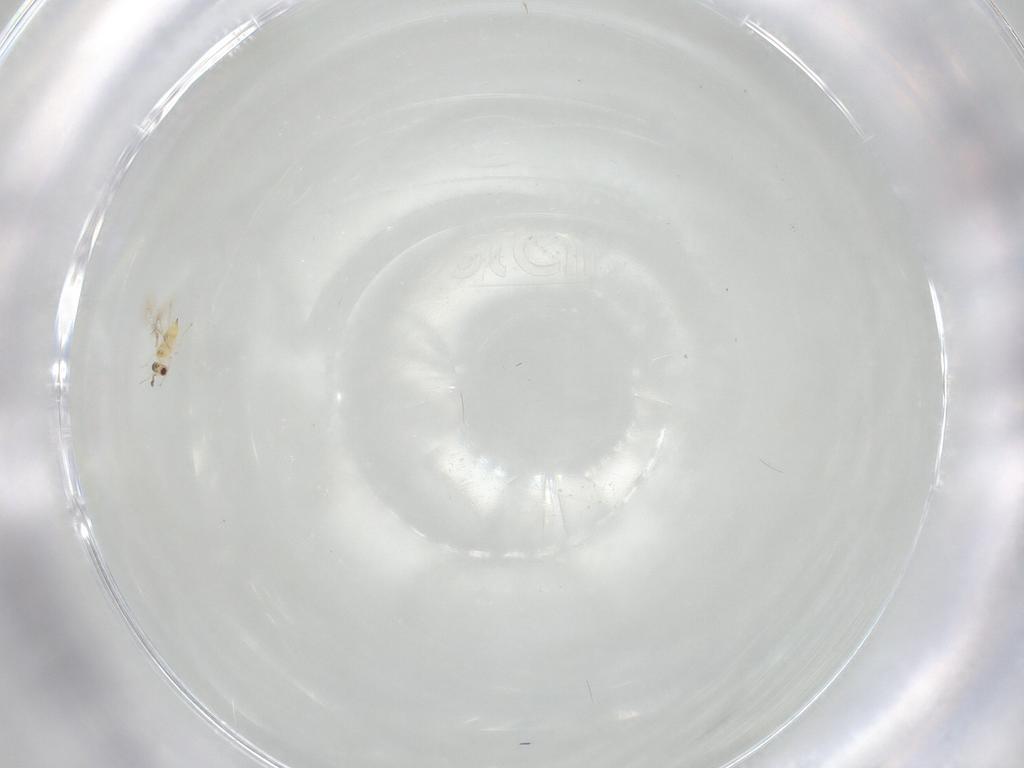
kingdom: Animalia
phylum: Arthropoda
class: Insecta
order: Hymenoptera
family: Mymaridae
